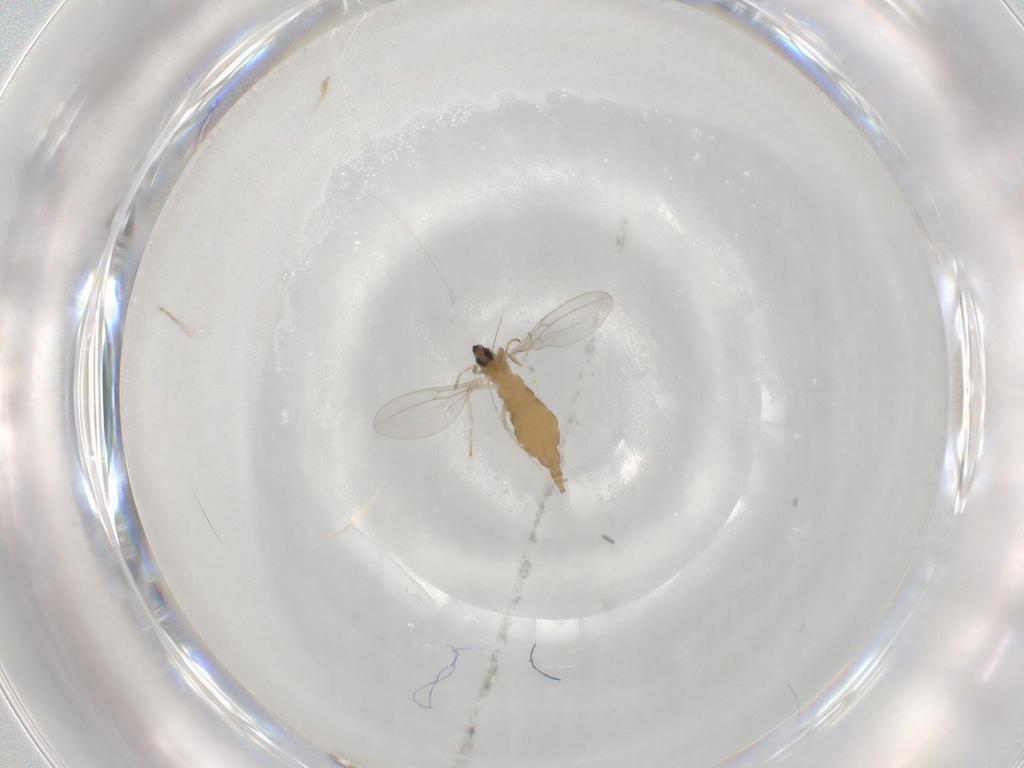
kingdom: Animalia
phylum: Arthropoda
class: Insecta
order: Diptera
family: Cecidomyiidae
